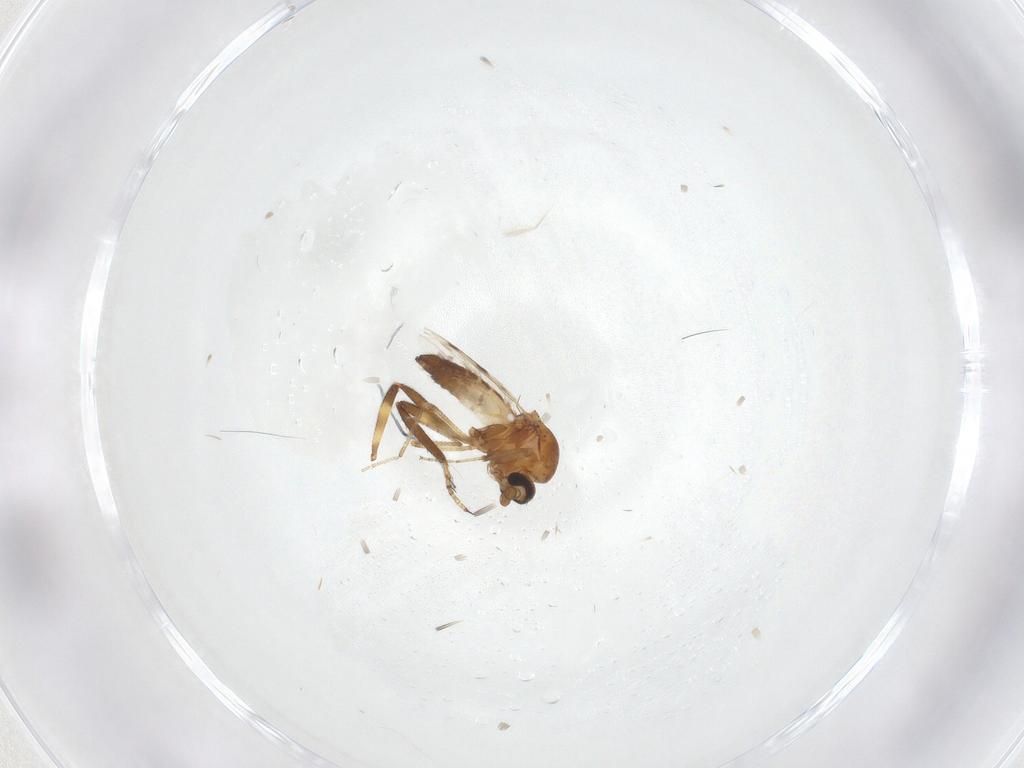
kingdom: Animalia
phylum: Arthropoda
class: Insecta
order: Diptera
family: Ceratopogonidae
